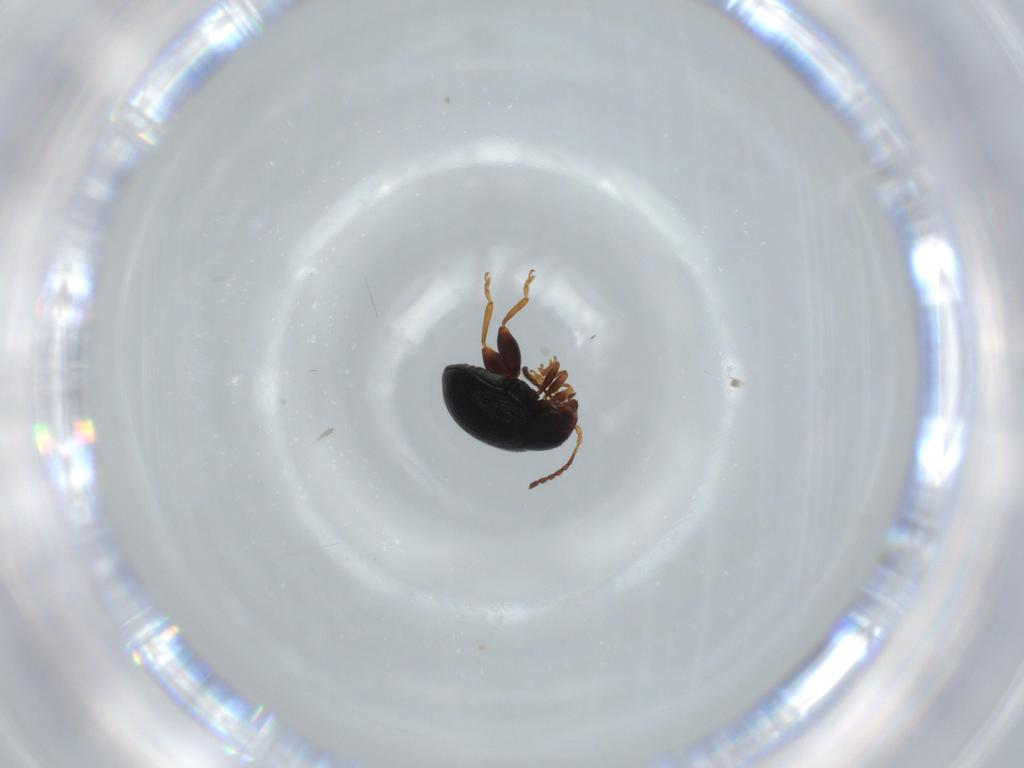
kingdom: Animalia
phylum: Arthropoda
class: Insecta
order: Coleoptera
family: Chrysomelidae
